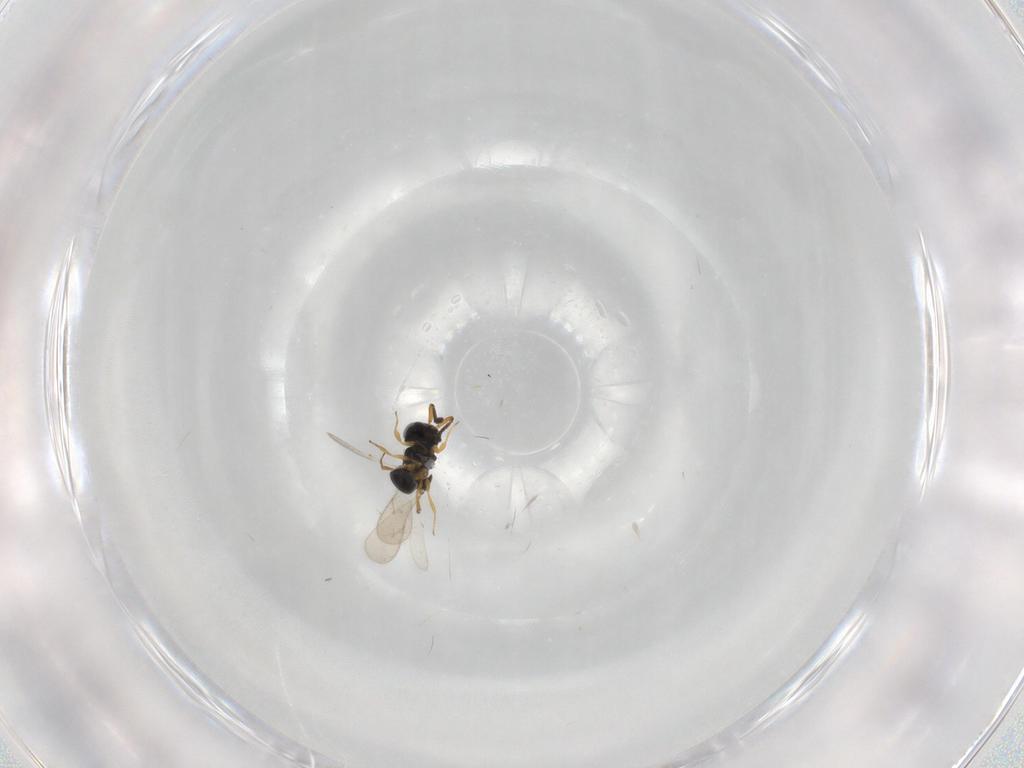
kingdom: Animalia
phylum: Arthropoda
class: Insecta
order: Hymenoptera
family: Scelionidae
